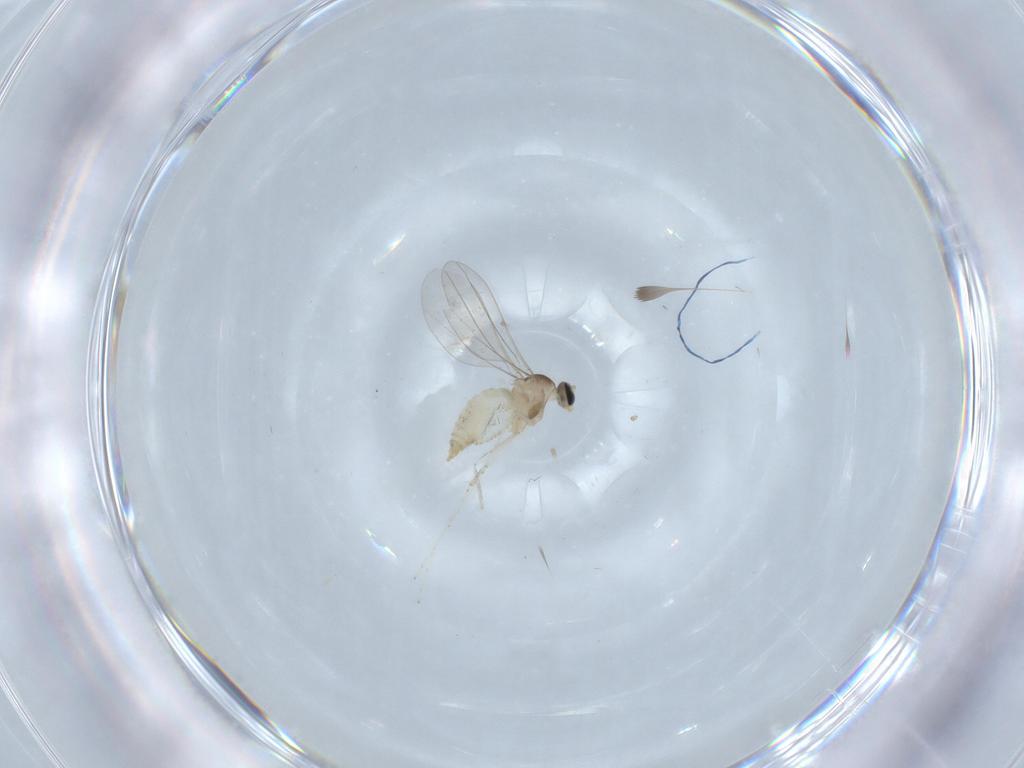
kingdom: Animalia
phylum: Arthropoda
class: Insecta
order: Diptera
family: Cecidomyiidae
